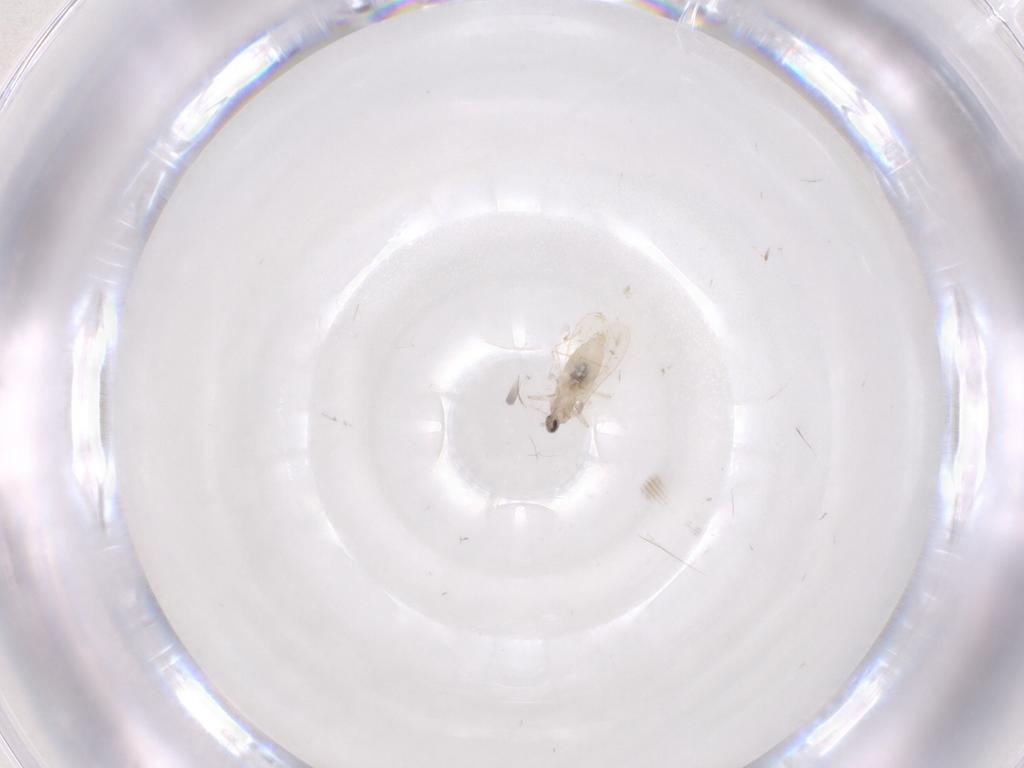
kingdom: Animalia
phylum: Arthropoda
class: Insecta
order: Diptera
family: Cecidomyiidae
